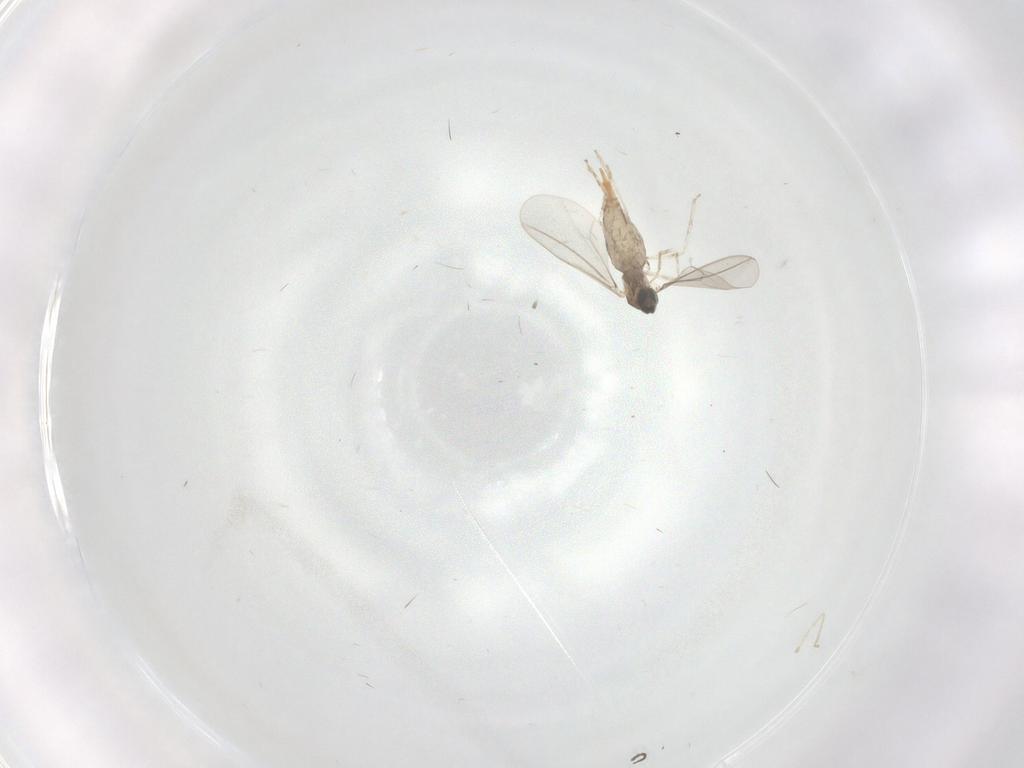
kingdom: Animalia
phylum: Arthropoda
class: Insecta
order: Diptera
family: Cecidomyiidae
